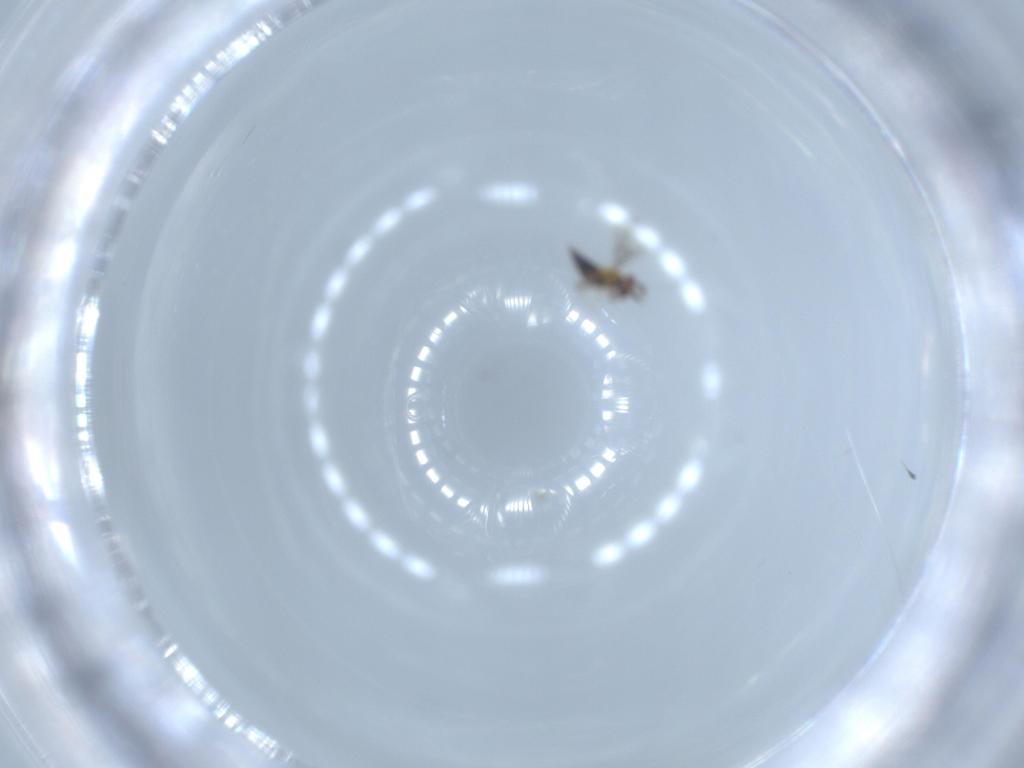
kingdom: Animalia
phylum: Arthropoda
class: Insecta
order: Hymenoptera
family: Trichogrammatidae
